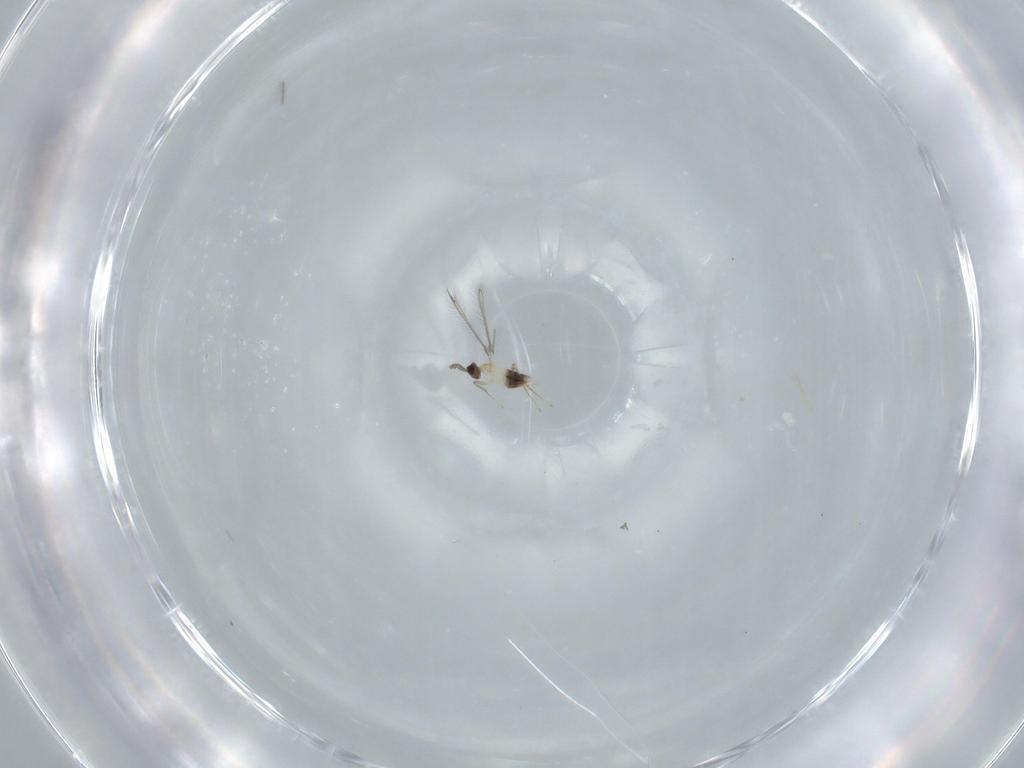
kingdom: Animalia
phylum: Arthropoda
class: Insecta
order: Hymenoptera
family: Mymaridae
